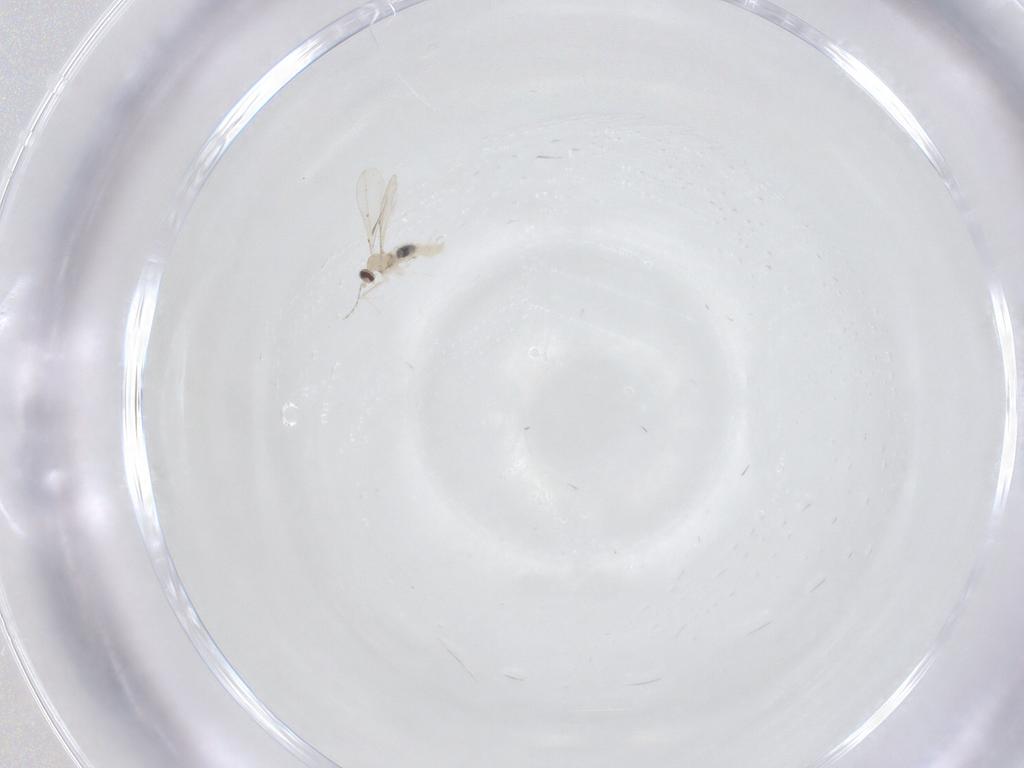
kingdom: Animalia
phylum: Arthropoda
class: Insecta
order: Diptera
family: Cecidomyiidae
